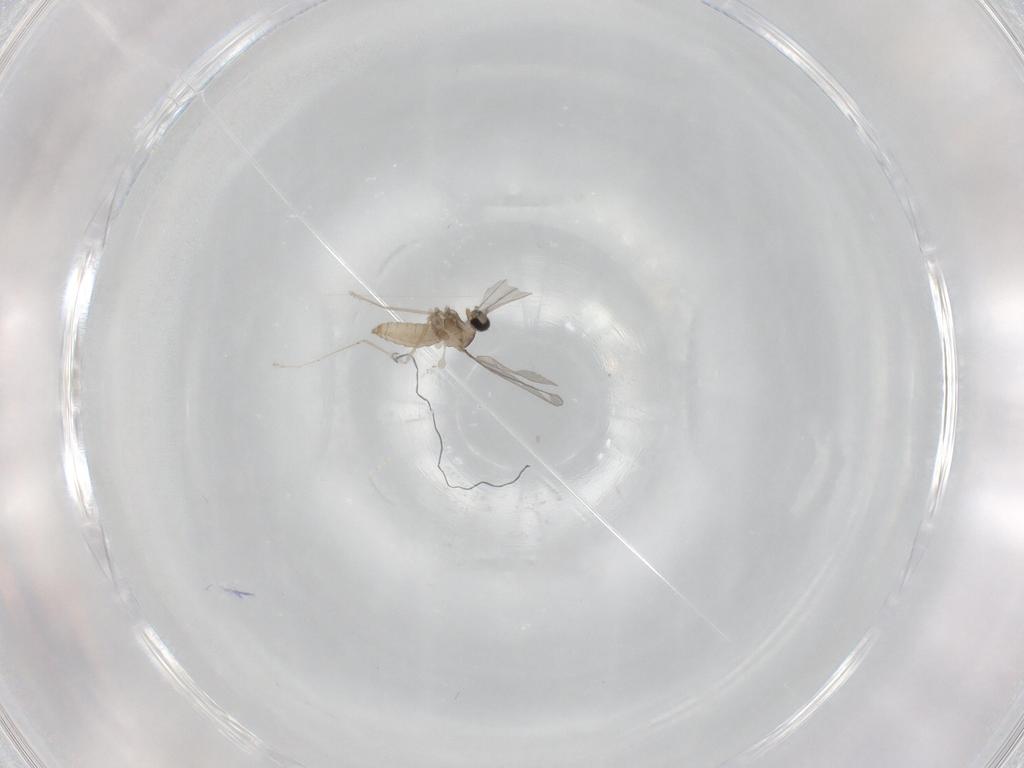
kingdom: Animalia
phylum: Arthropoda
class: Insecta
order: Diptera
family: Cecidomyiidae
